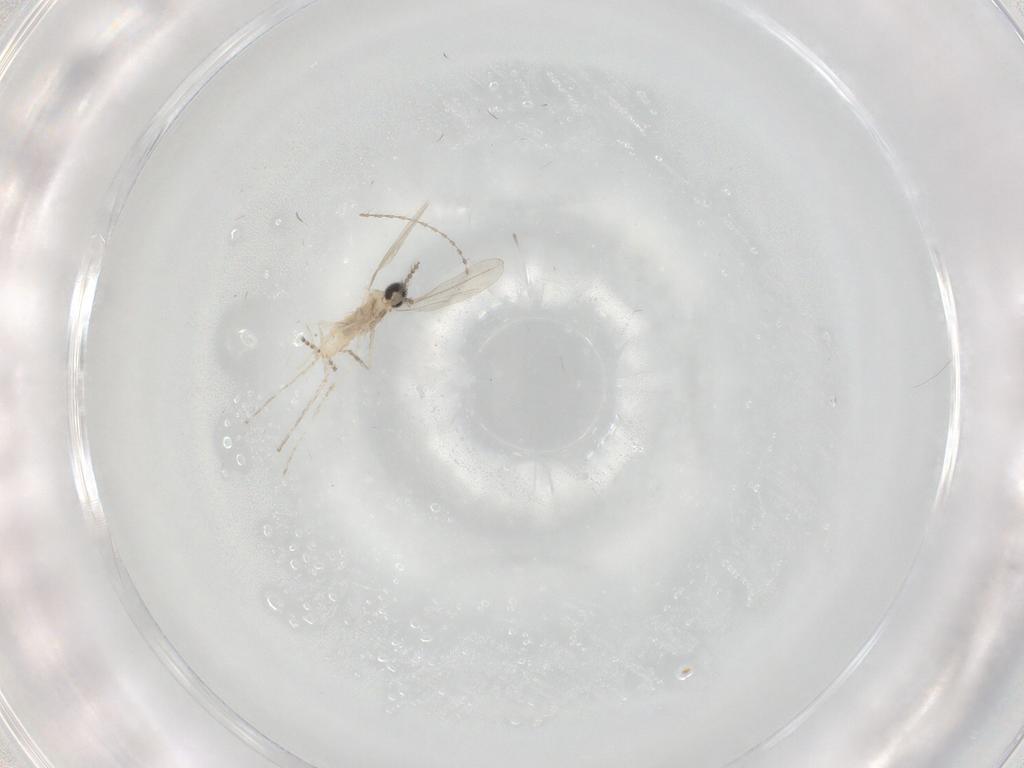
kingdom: Animalia
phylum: Arthropoda
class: Insecta
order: Diptera
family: Cecidomyiidae
